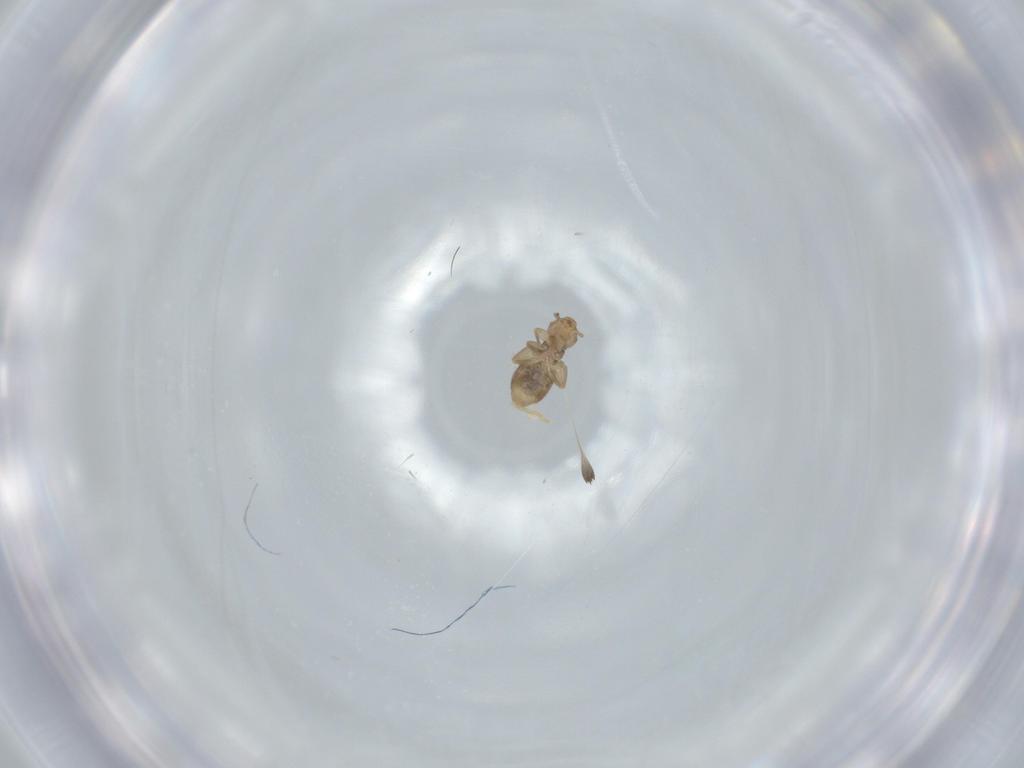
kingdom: Animalia
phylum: Arthropoda
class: Insecta
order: Psocodea
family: Liposcelididae
